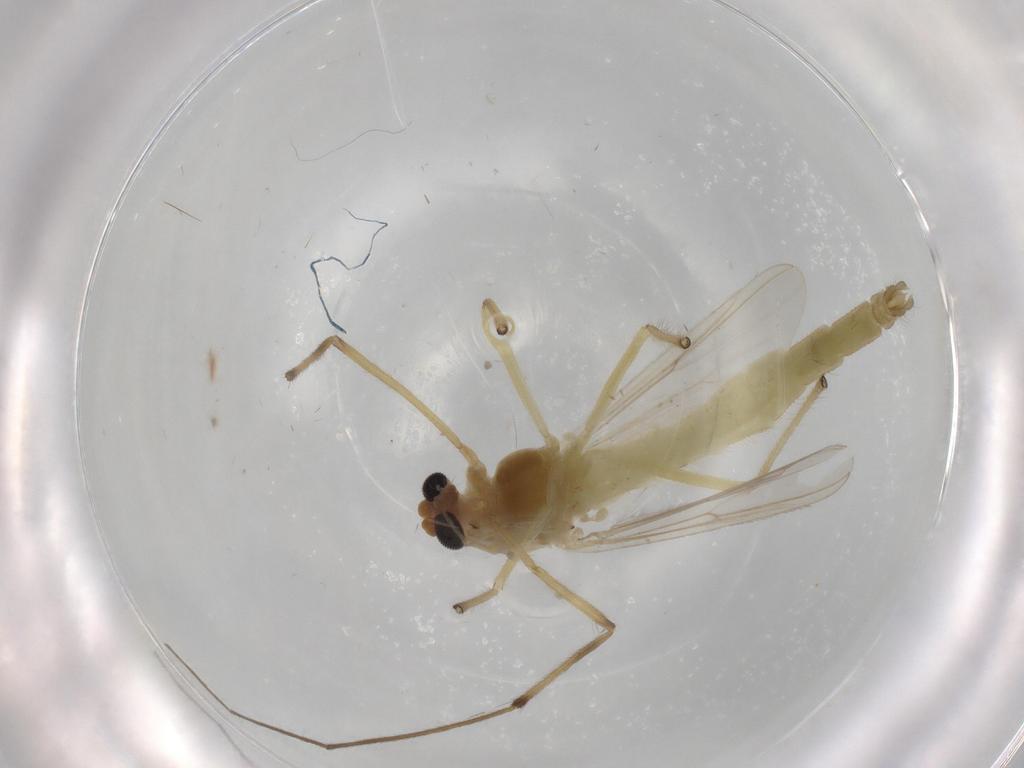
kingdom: Animalia
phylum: Arthropoda
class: Insecta
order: Diptera
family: Chironomidae
